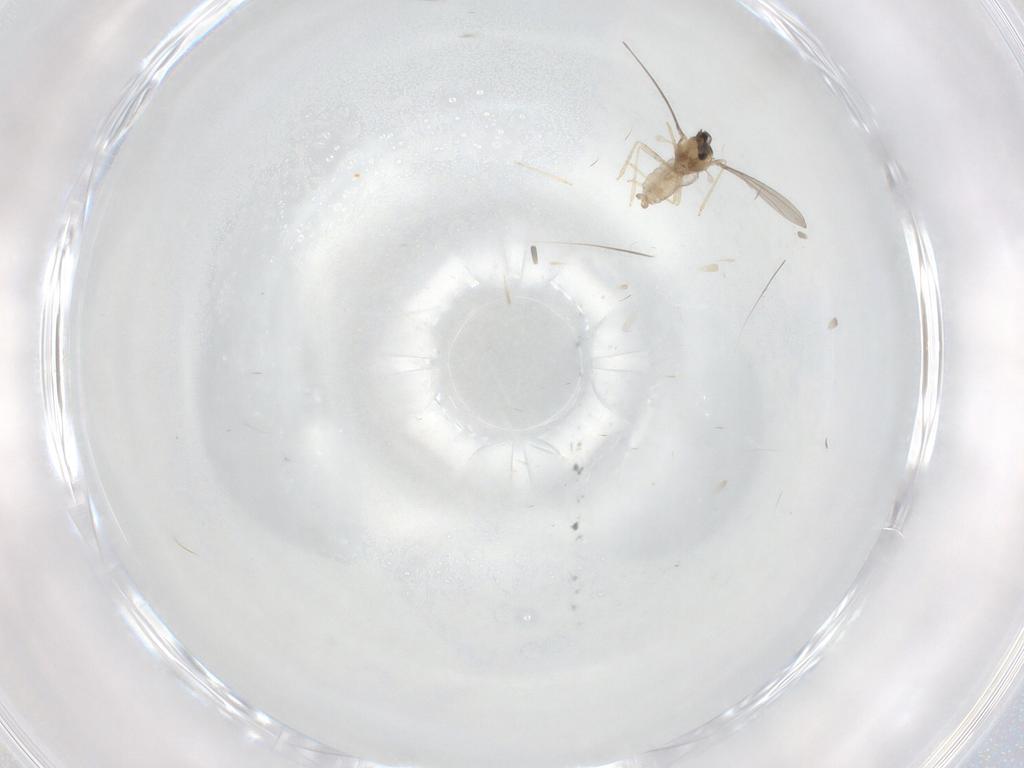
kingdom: Animalia
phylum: Arthropoda
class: Insecta
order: Diptera
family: Sciaridae
